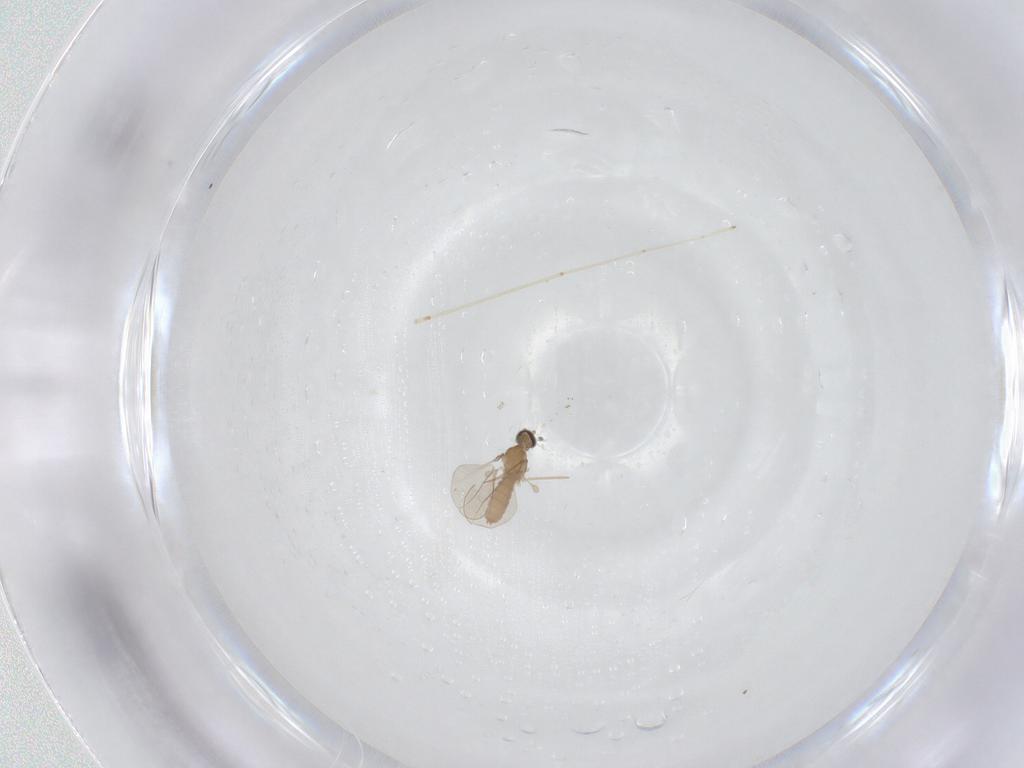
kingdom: Animalia
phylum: Arthropoda
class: Insecta
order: Diptera
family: Cecidomyiidae
